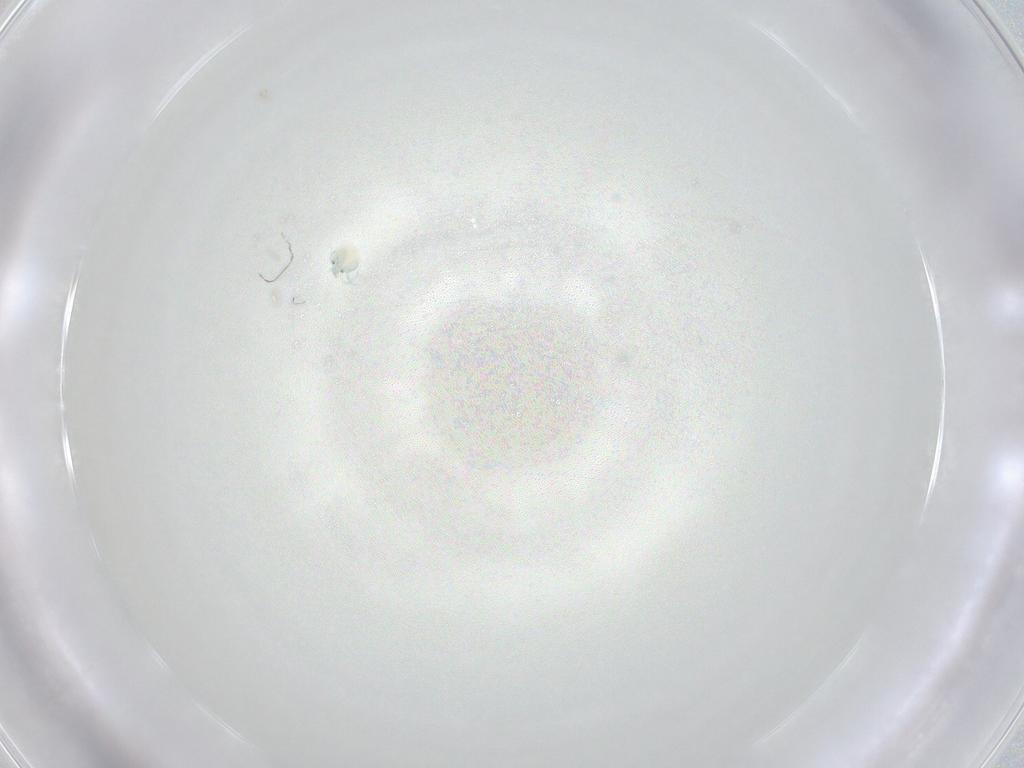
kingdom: Animalia
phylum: Arthropoda
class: Arachnida
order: Trombidiformes
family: Arrenuridae
